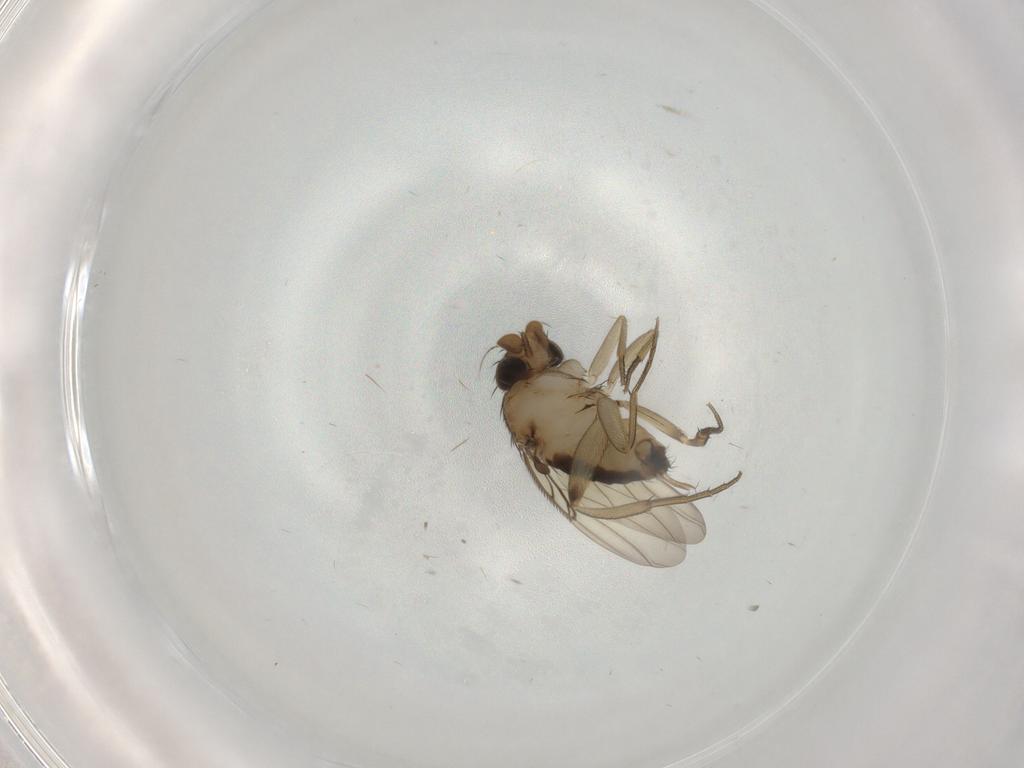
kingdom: Animalia
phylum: Arthropoda
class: Insecta
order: Diptera
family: Phoridae
